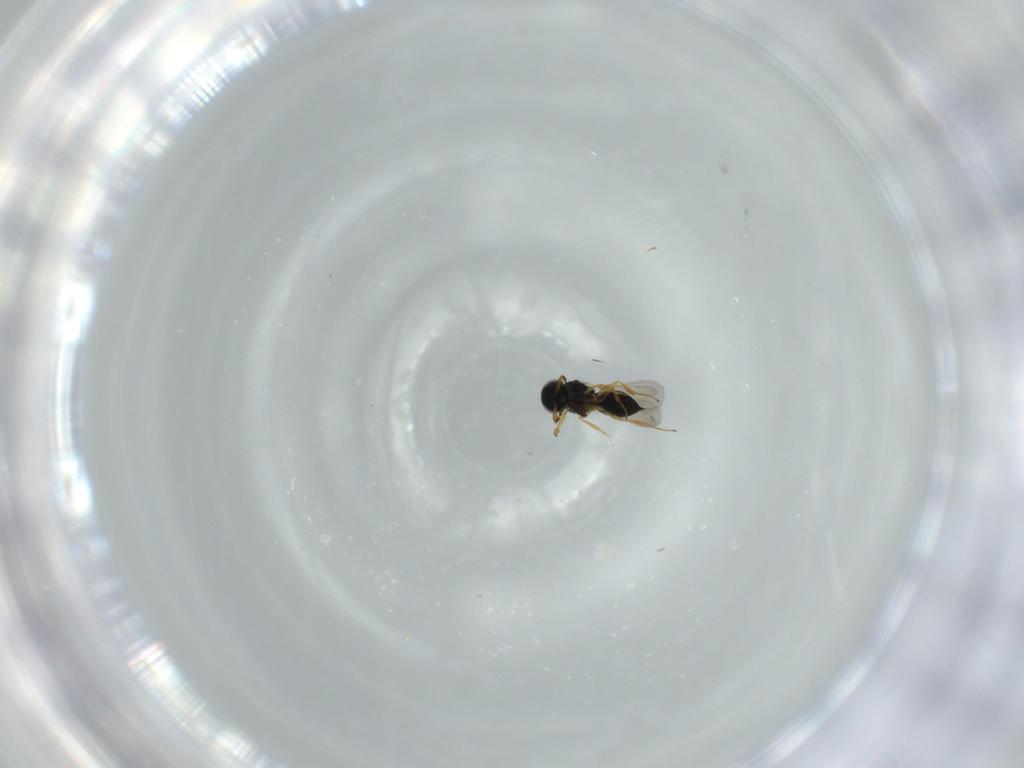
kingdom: Animalia
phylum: Arthropoda
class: Insecta
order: Hymenoptera
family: Scelionidae
